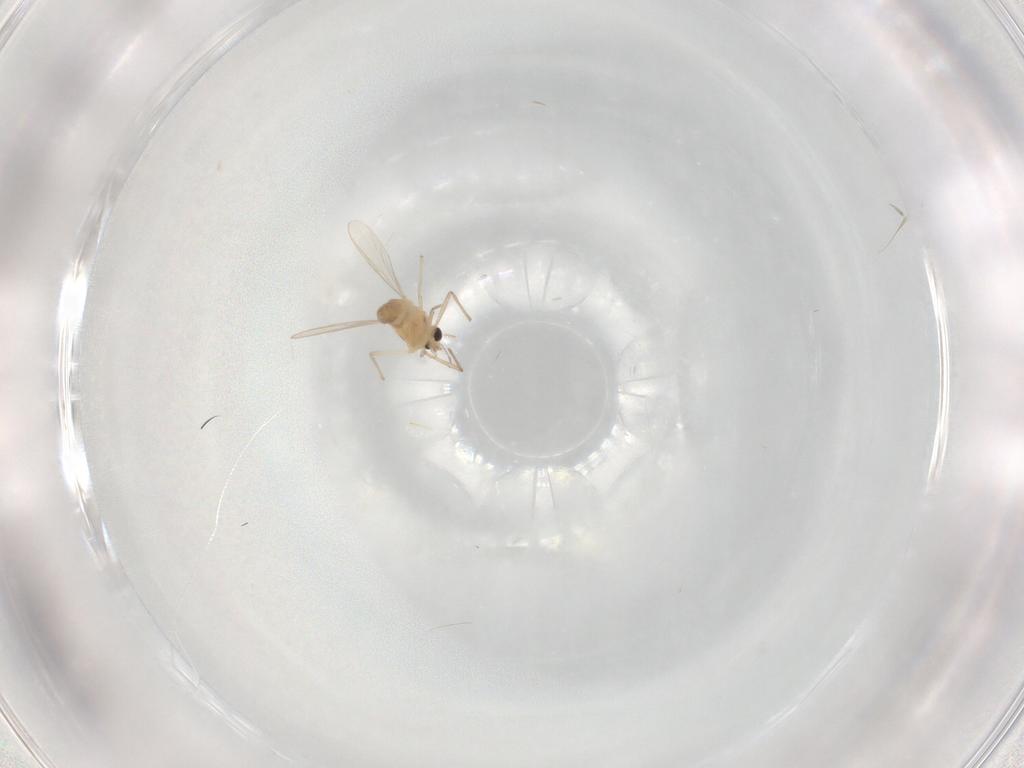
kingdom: Animalia
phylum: Arthropoda
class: Insecta
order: Diptera
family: Chironomidae
